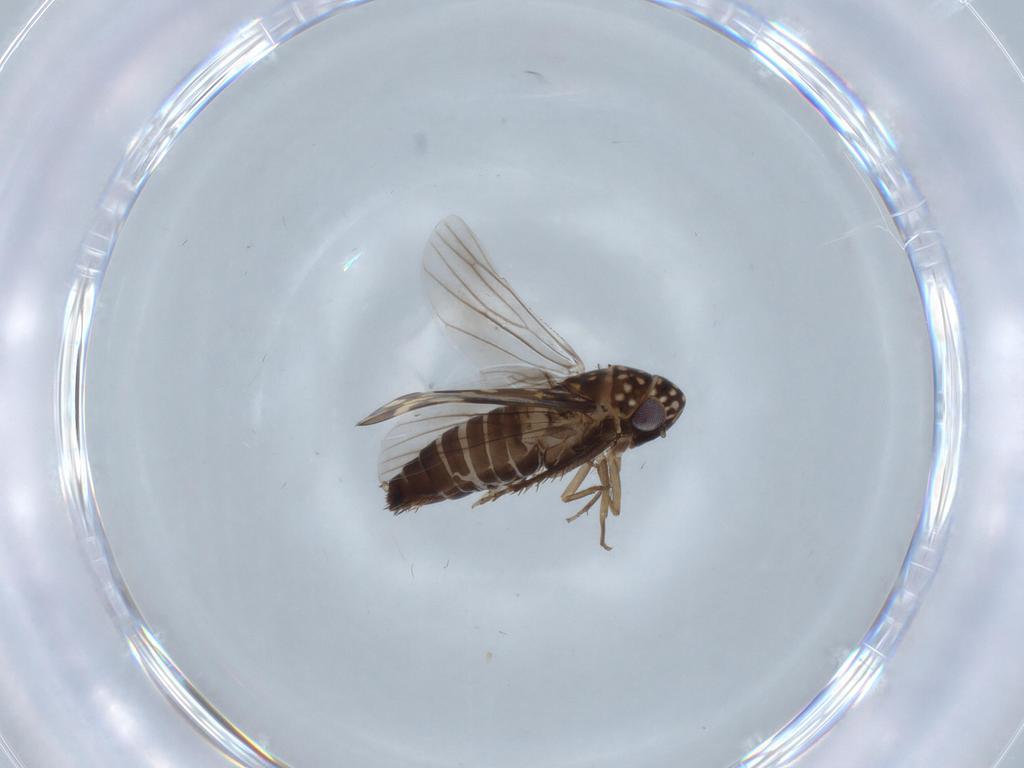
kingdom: Animalia
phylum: Arthropoda
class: Insecta
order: Hemiptera
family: Cicadellidae
